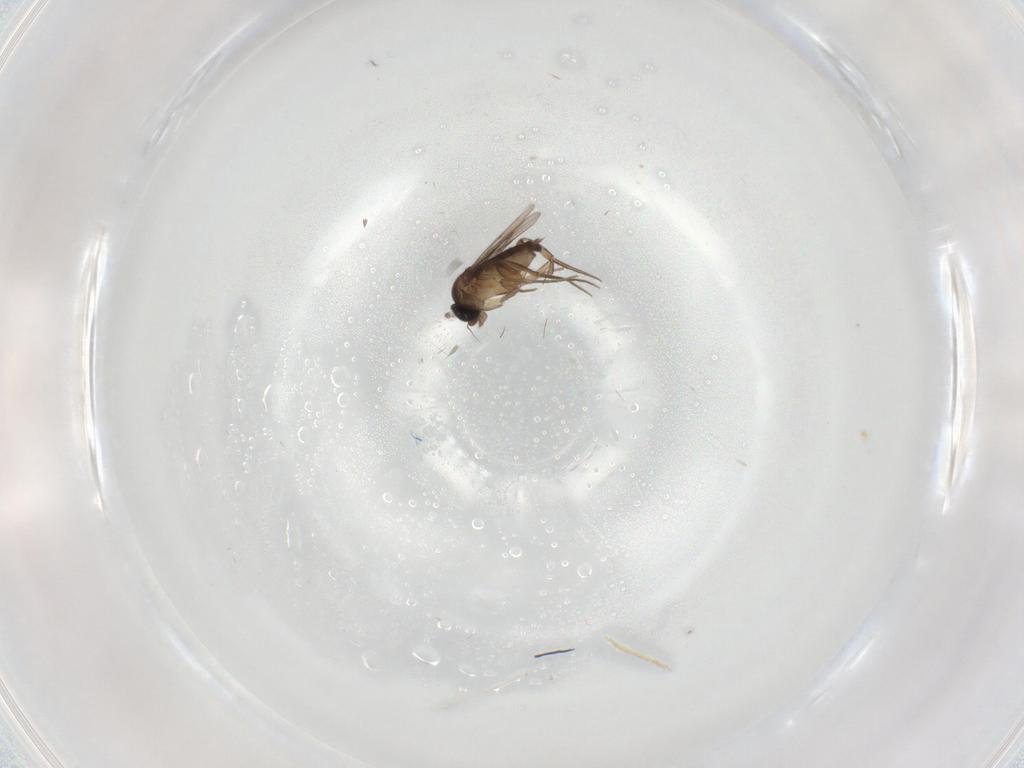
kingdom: Animalia
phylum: Arthropoda
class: Insecta
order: Diptera
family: Phoridae
